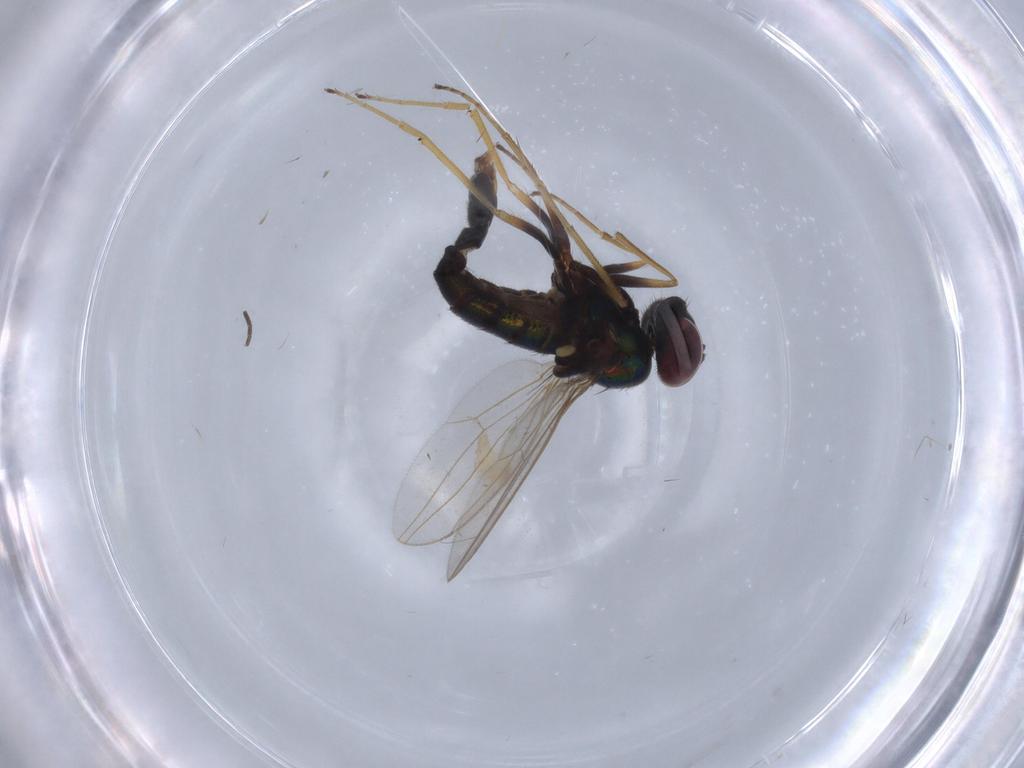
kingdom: Animalia
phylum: Arthropoda
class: Insecta
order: Diptera
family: Dolichopodidae
